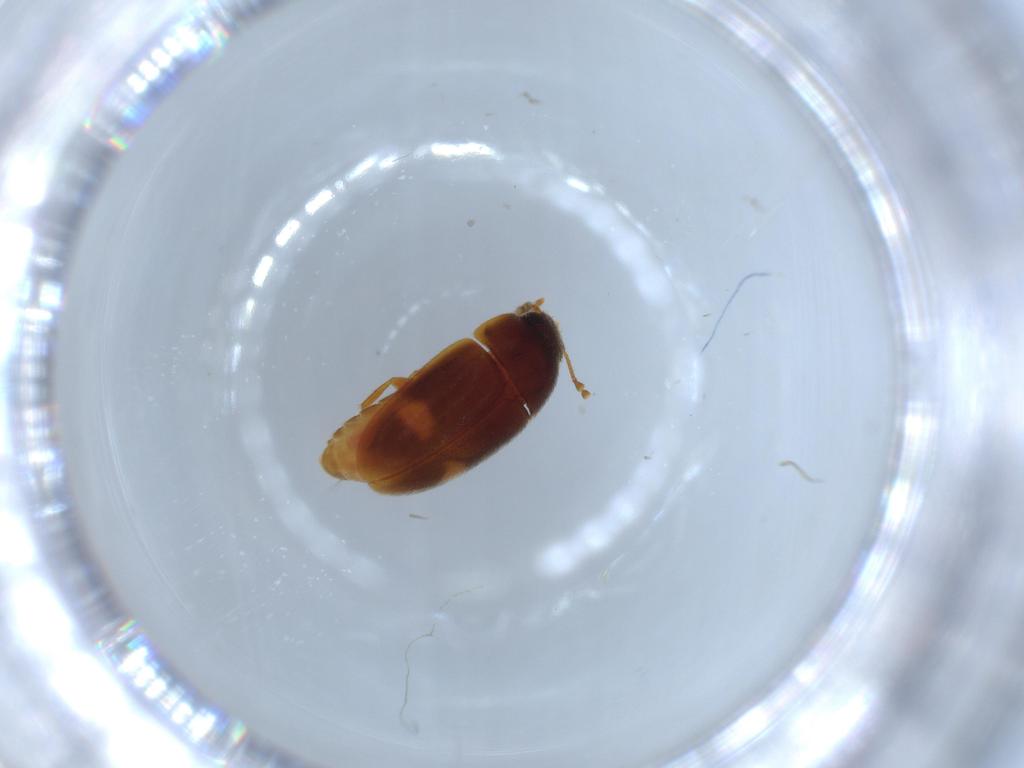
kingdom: Animalia
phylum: Arthropoda
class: Insecta
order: Coleoptera
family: Mycetophagidae
